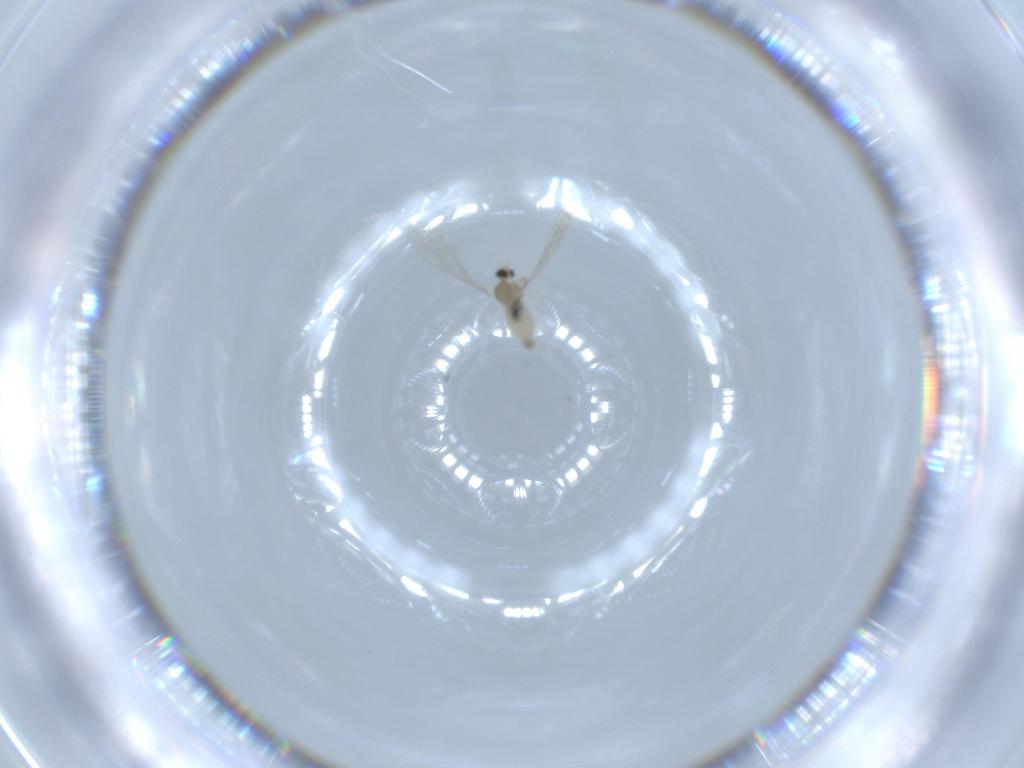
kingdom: Animalia
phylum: Arthropoda
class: Insecta
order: Diptera
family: Cecidomyiidae
